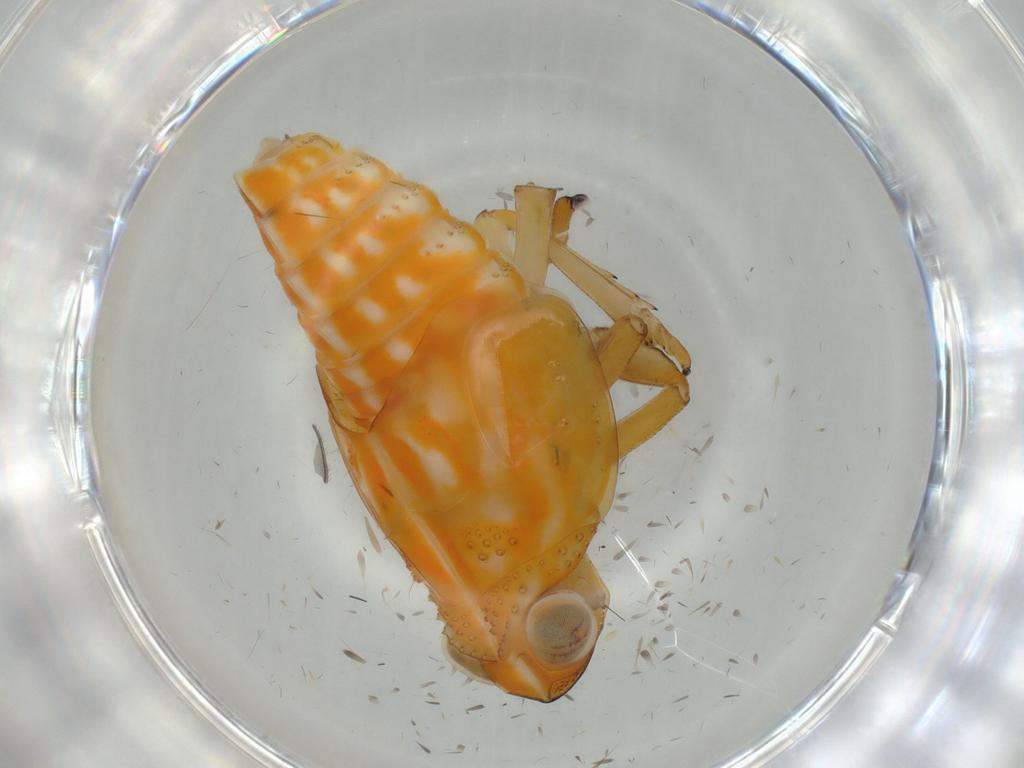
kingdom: Animalia
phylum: Arthropoda
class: Insecta
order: Hemiptera
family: Issidae
